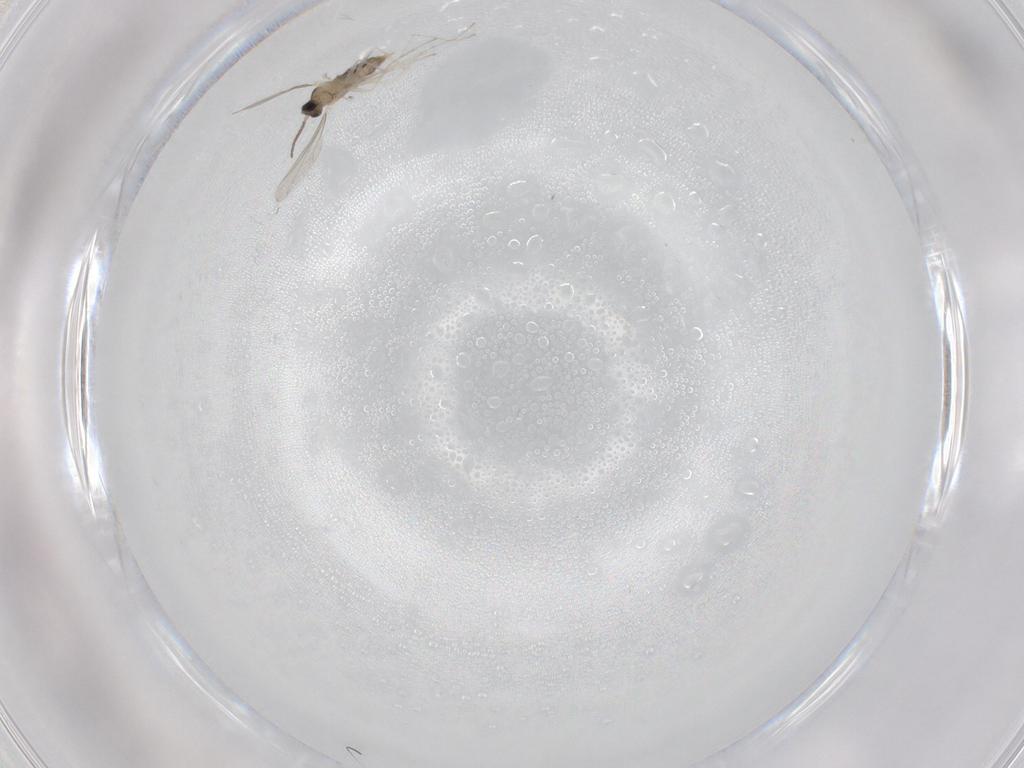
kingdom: Animalia
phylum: Arthropoda
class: Insecta
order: Diptera
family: Cecidomyiidae
